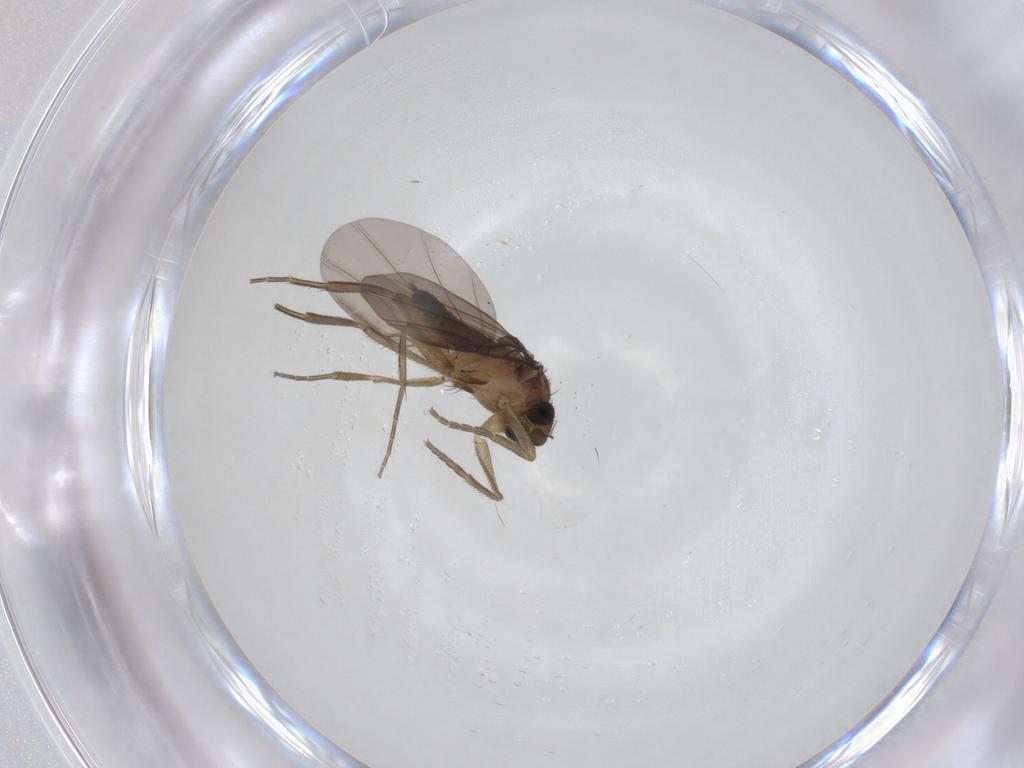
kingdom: Animalia
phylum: Arthropoda
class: Insecta
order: Diptera
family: Phoridae
